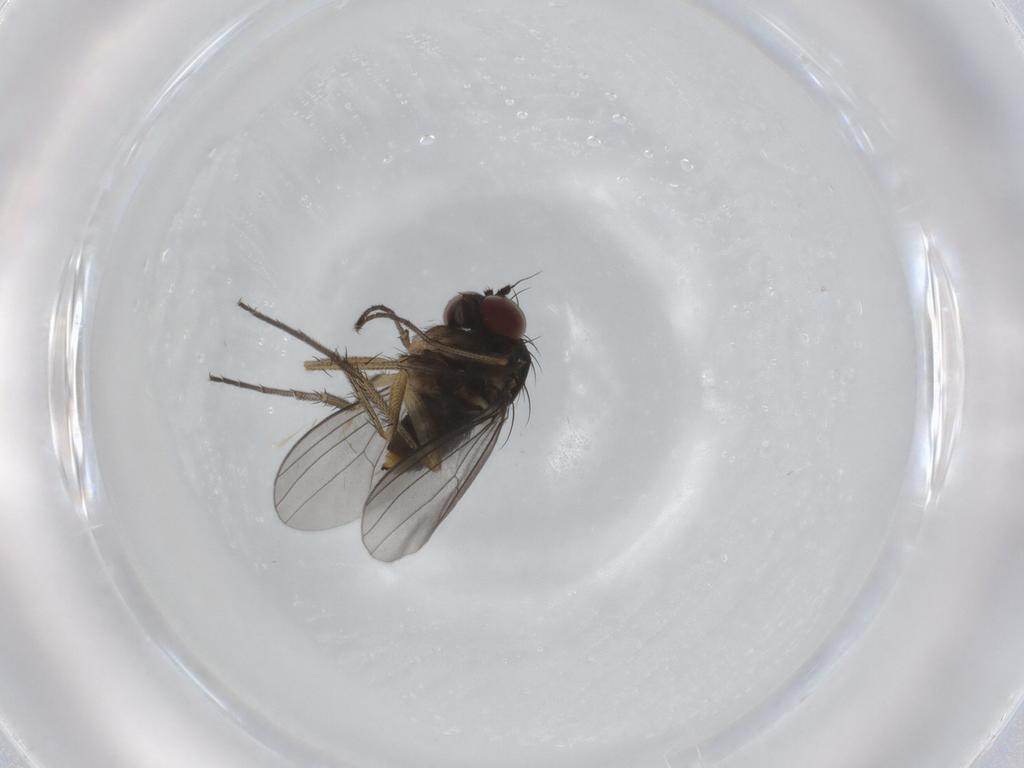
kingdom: Animalia
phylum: Arthropoda
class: Insecta
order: Diptera
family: Dolichopodidae
